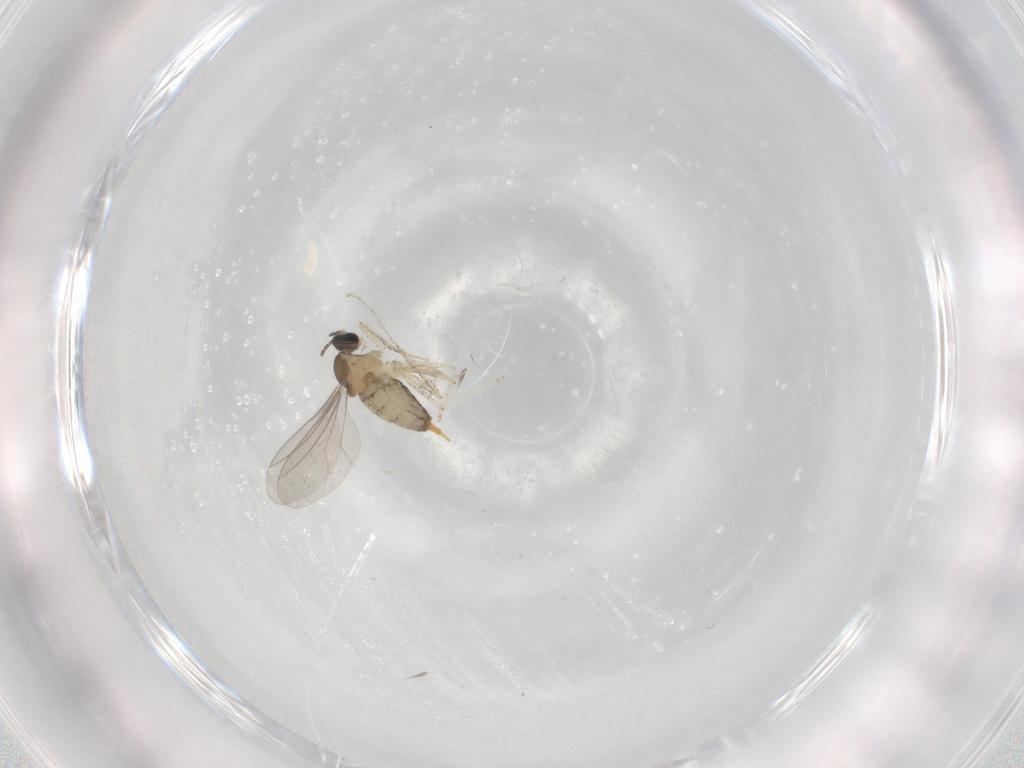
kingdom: Animalia
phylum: Arthropoda
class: Insecta
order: Diptera
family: Cecidomyiidae
